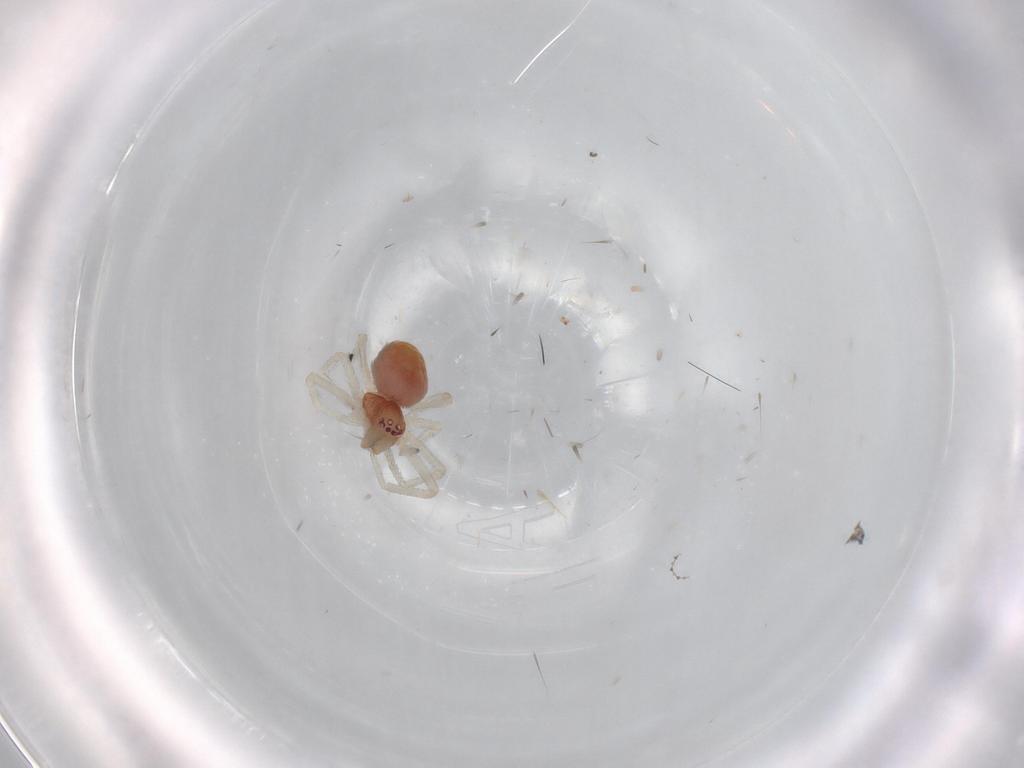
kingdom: Animalia
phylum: Arthropoda
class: Arachnida
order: Araneae
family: Dictynidae
